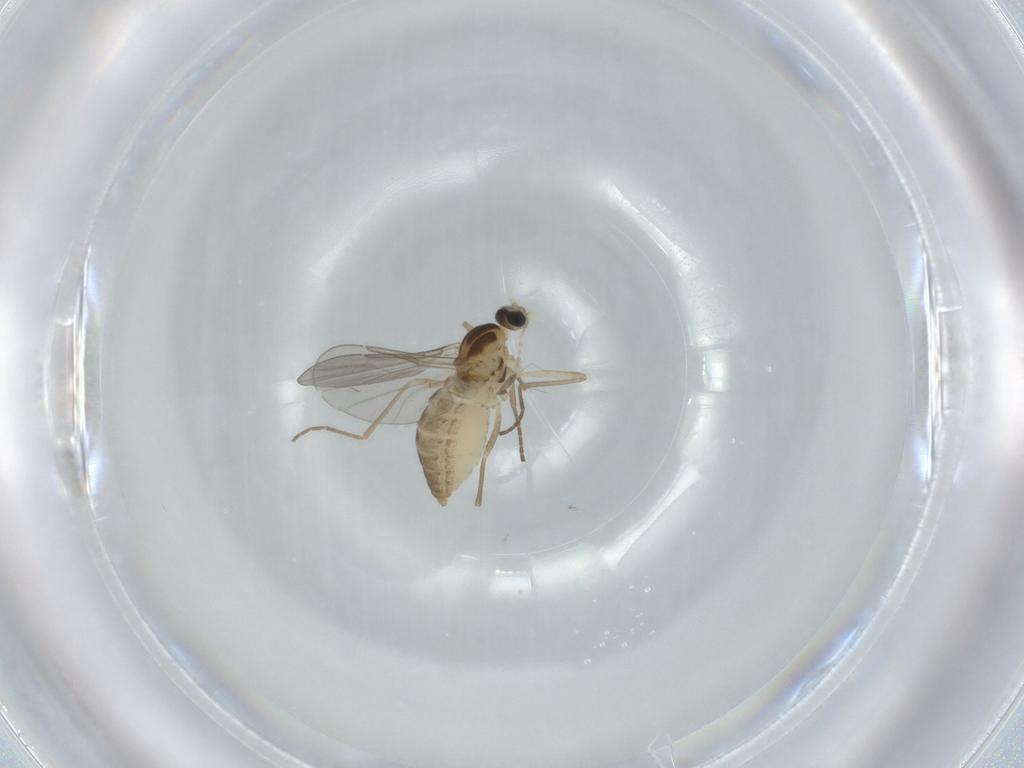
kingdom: Animalia
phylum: Arthropoda
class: Insecta
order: Diptera
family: Cecidomyiidae
